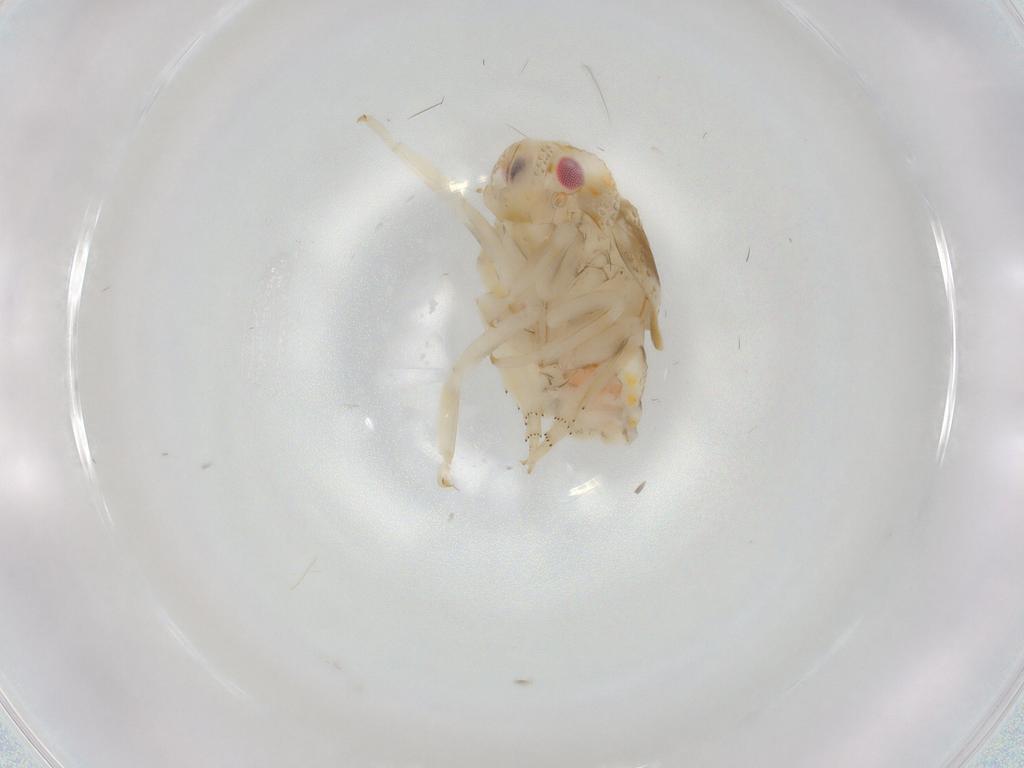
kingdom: Animalia
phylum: Arthropoda
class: Insecta
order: Hemiptera
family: Flatidae
